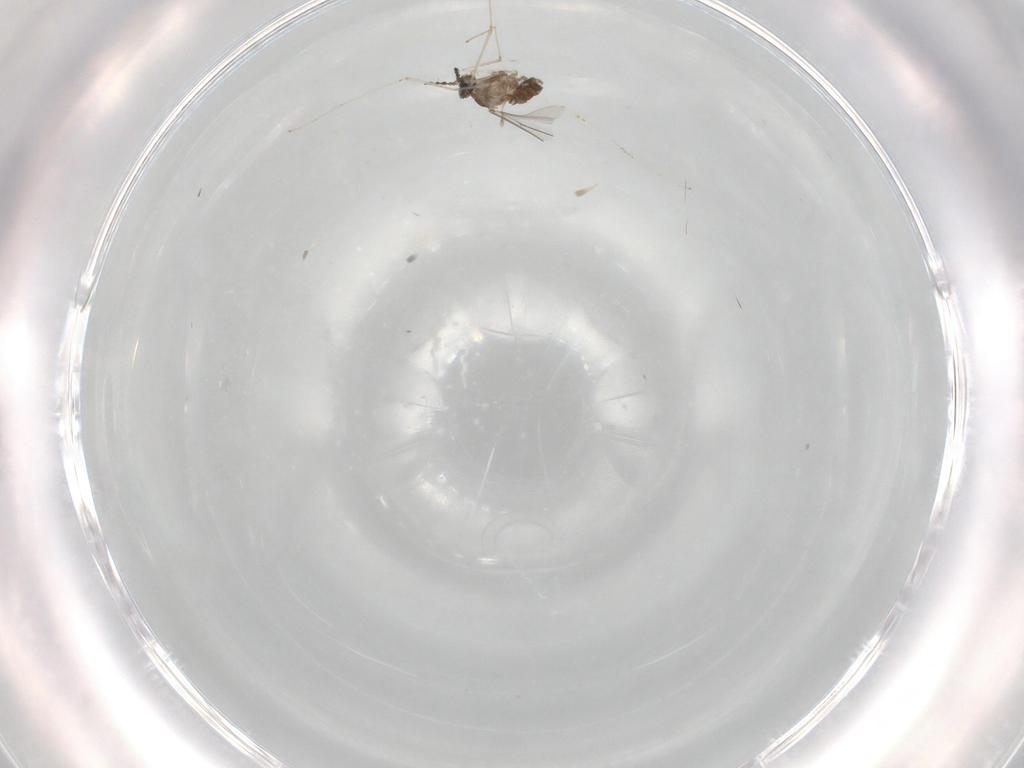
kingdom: Animalia
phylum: Arthropoda
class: Insecta
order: Diptera
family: Cecidomyiidae
